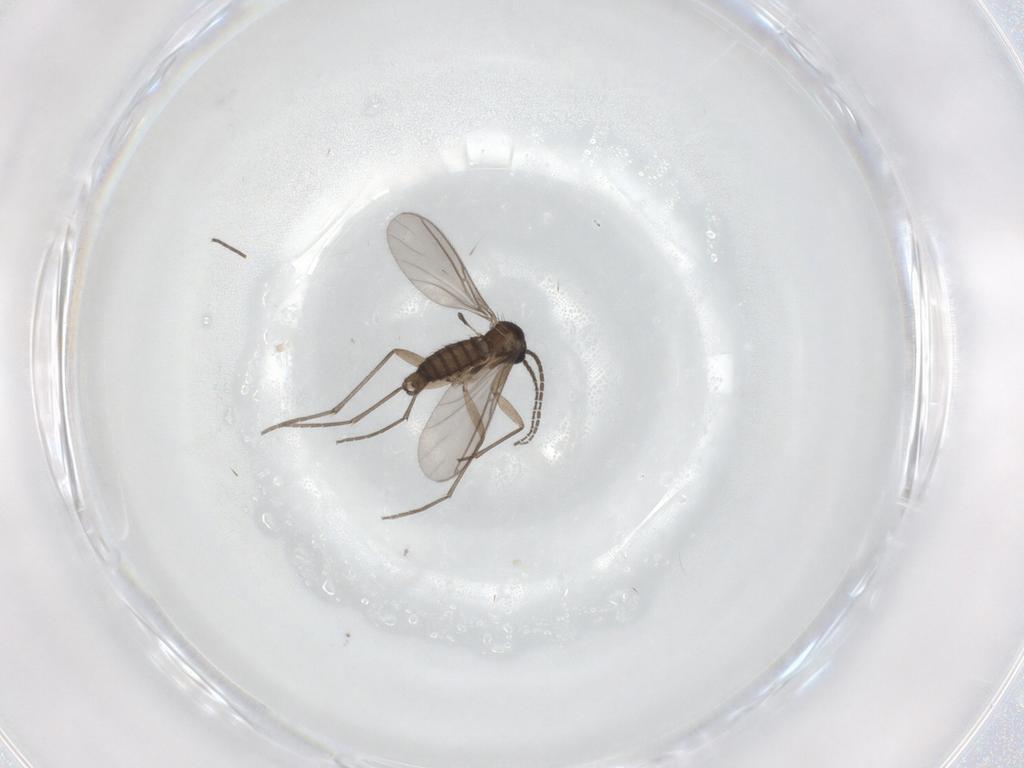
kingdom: Animalia
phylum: Arthropoda
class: Insecta
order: Diptera
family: Sciaridae
